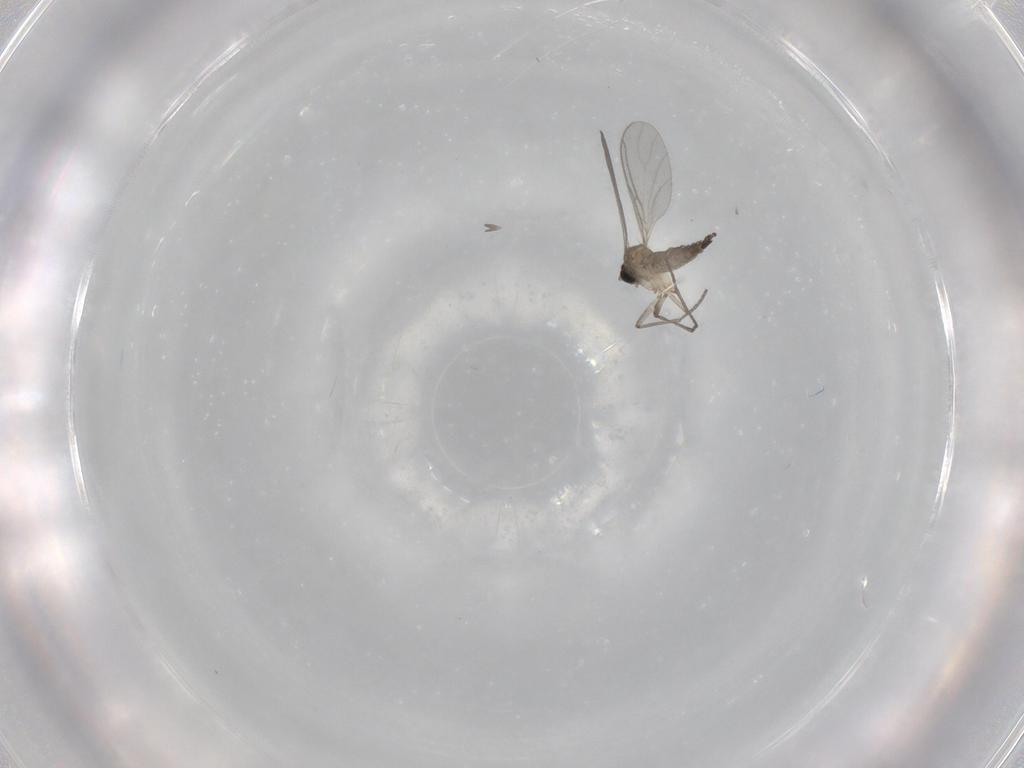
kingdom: Animalia
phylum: Arthropoda
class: Insecta
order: Diptera
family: Sciaridae
